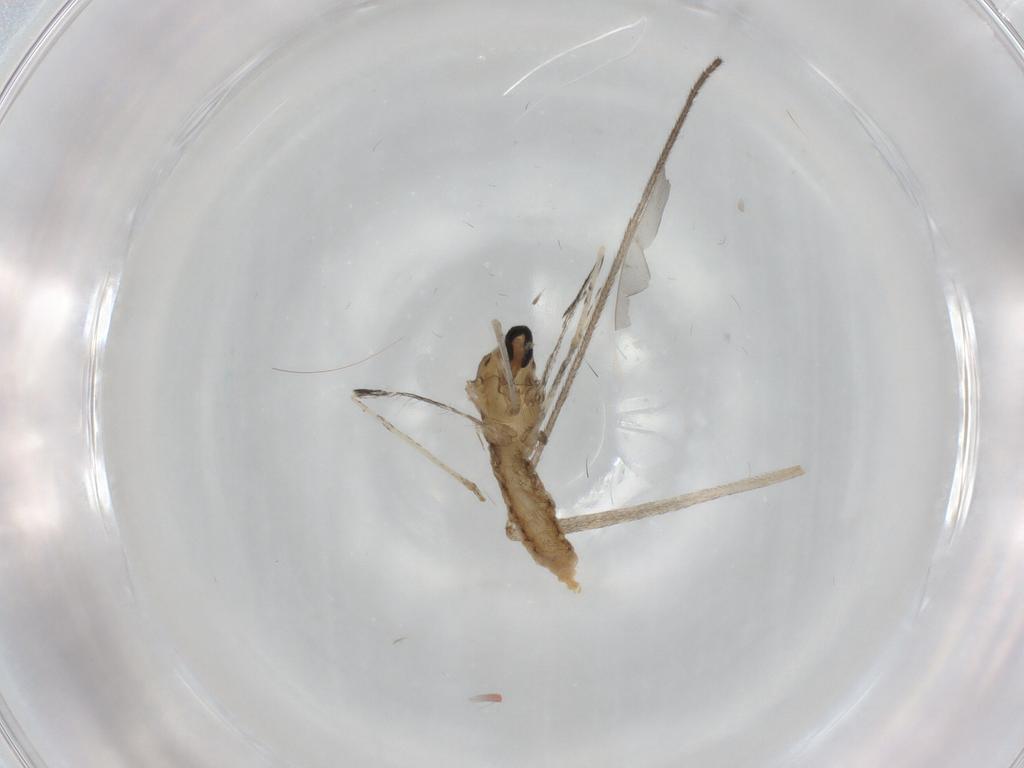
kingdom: Animalia
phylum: Arthropoda
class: Insecta
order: Diptera
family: Cecidomyiidae
